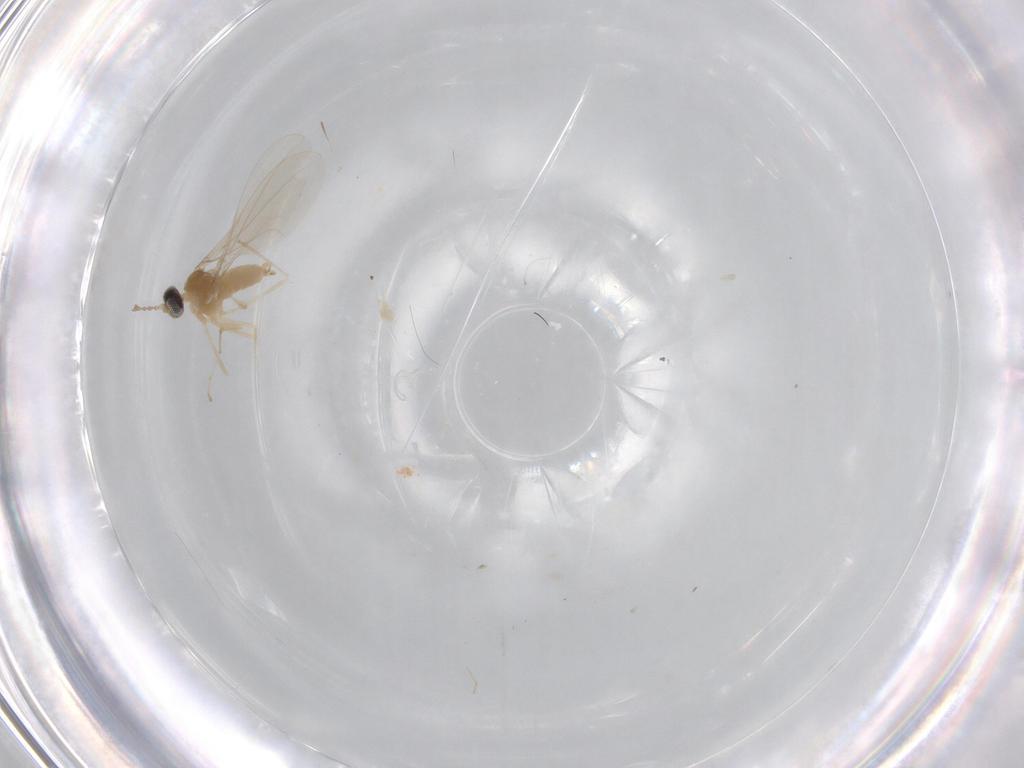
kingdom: Animalia
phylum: Arthropoda
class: Insecta
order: Diptera
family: Cecidomyiidae
